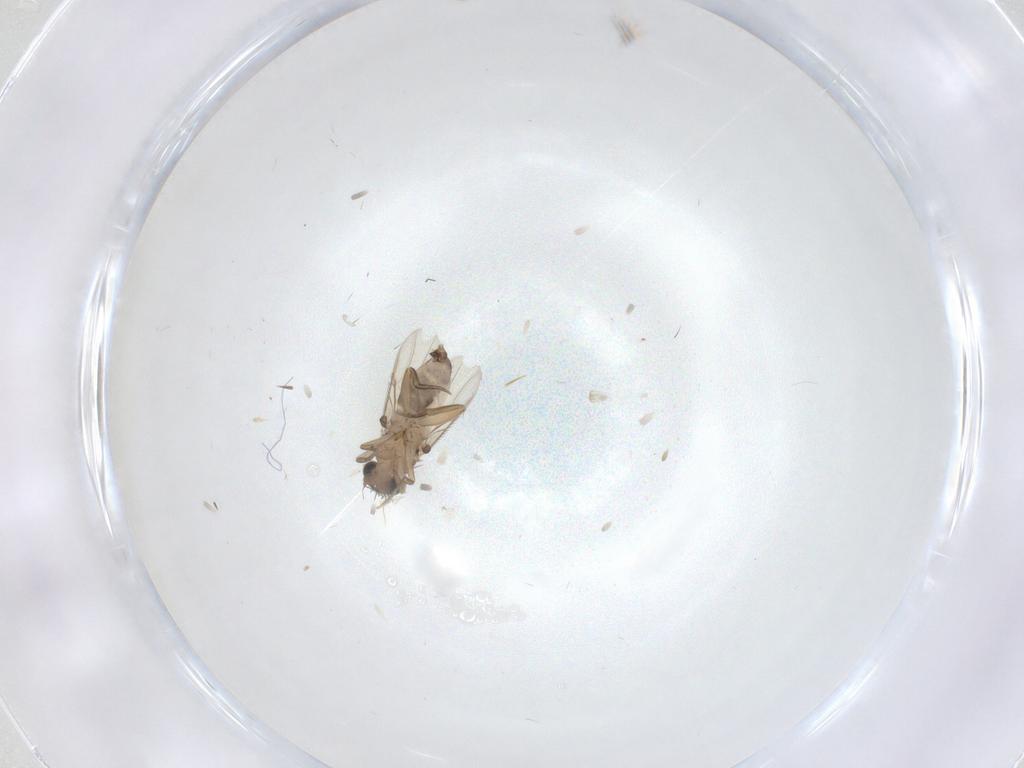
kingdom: Animalia
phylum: Arthropoda
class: Insecta
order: Diptera
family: Phoridae
